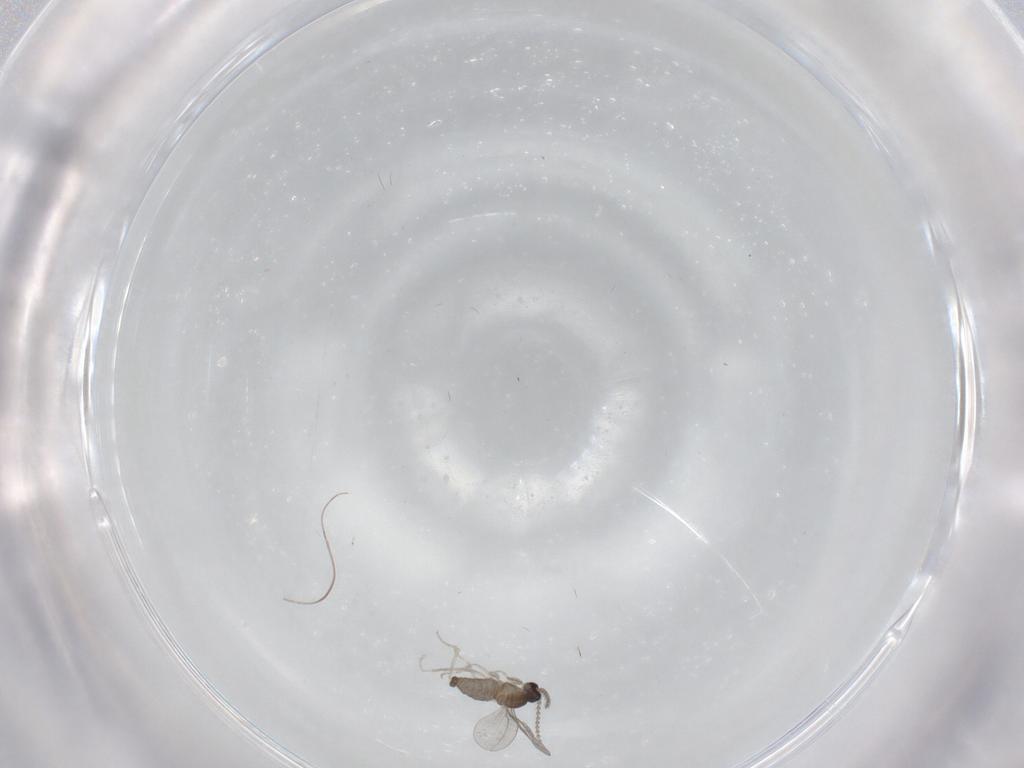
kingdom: Animalia
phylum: Arthropoda
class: Insecta
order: Diptera
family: Cecidomyiidae
